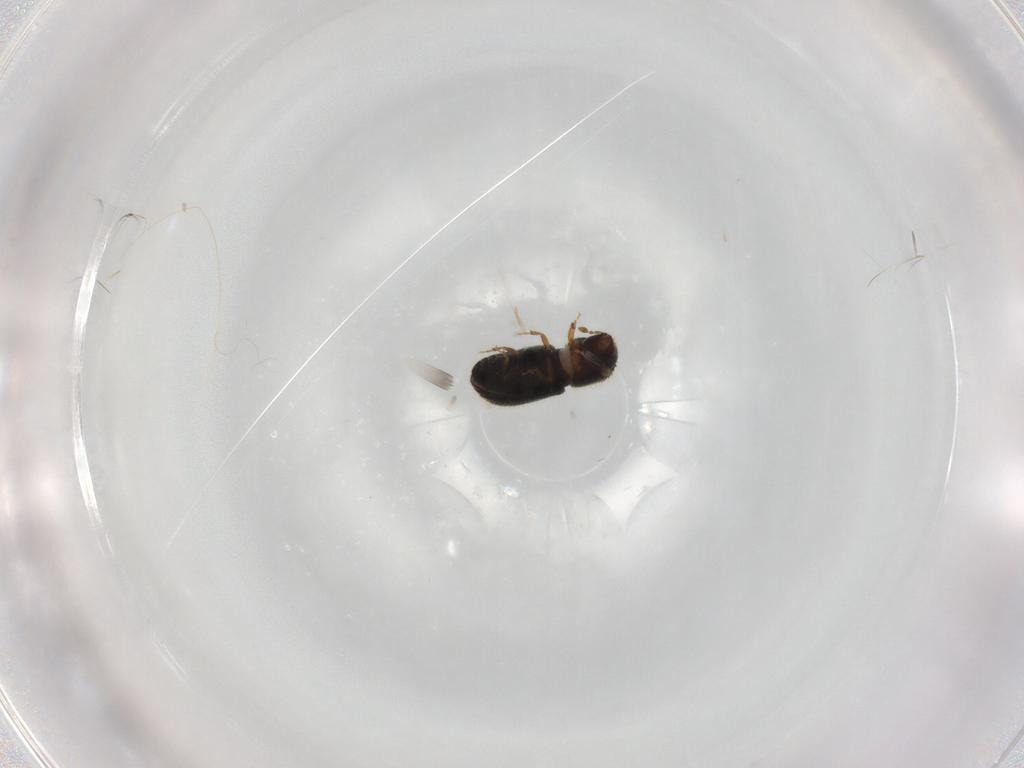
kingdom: Animalia
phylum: Arthropoda
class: Insecta
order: Coleoptera
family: Curculionidae
